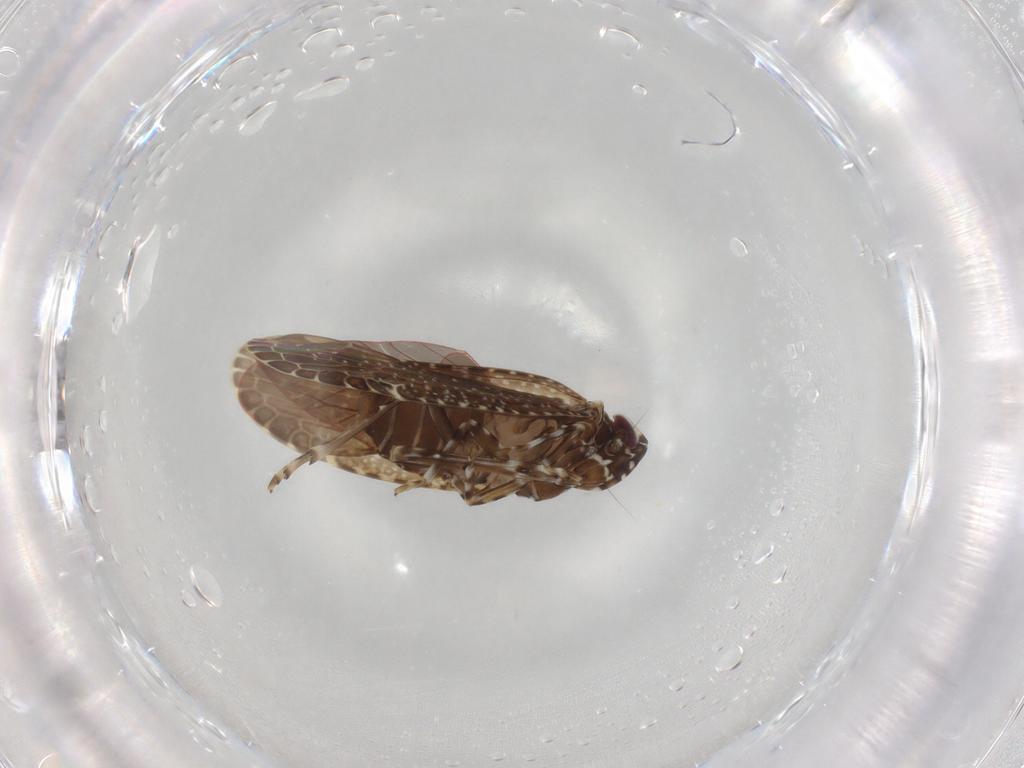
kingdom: Animalia
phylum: Arthropoda
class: Insecta
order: Hemiptera
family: Achilidae
